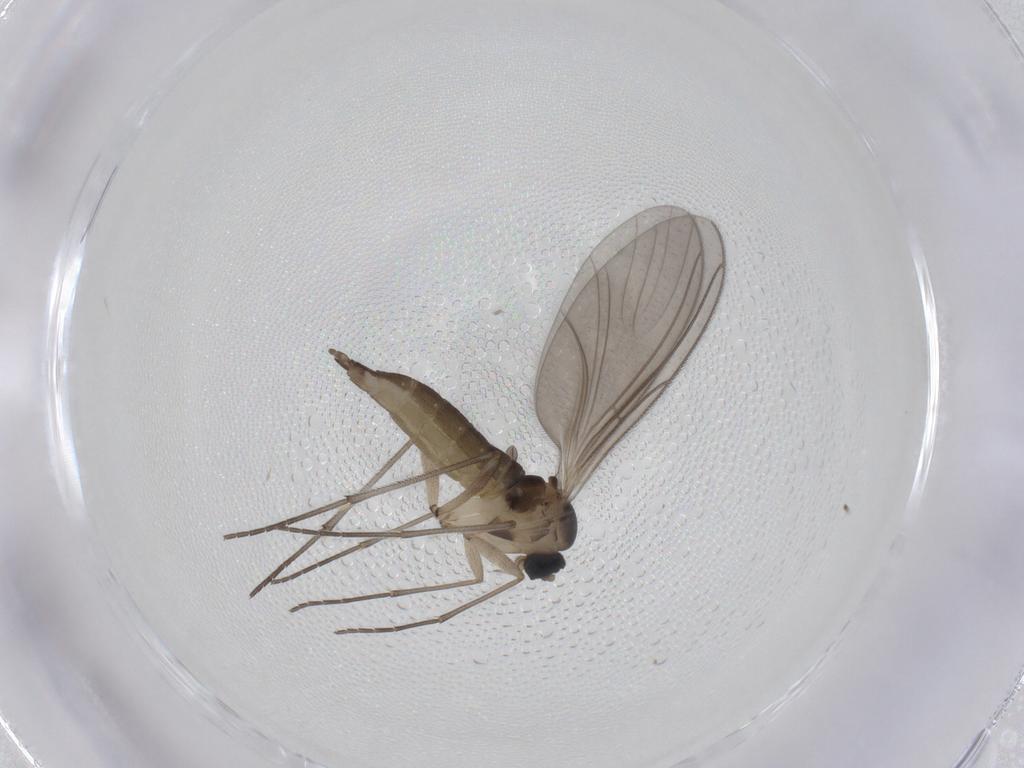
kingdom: Animalia
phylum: Arthropoda
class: Insecta
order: Diptera
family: Sciaridae
